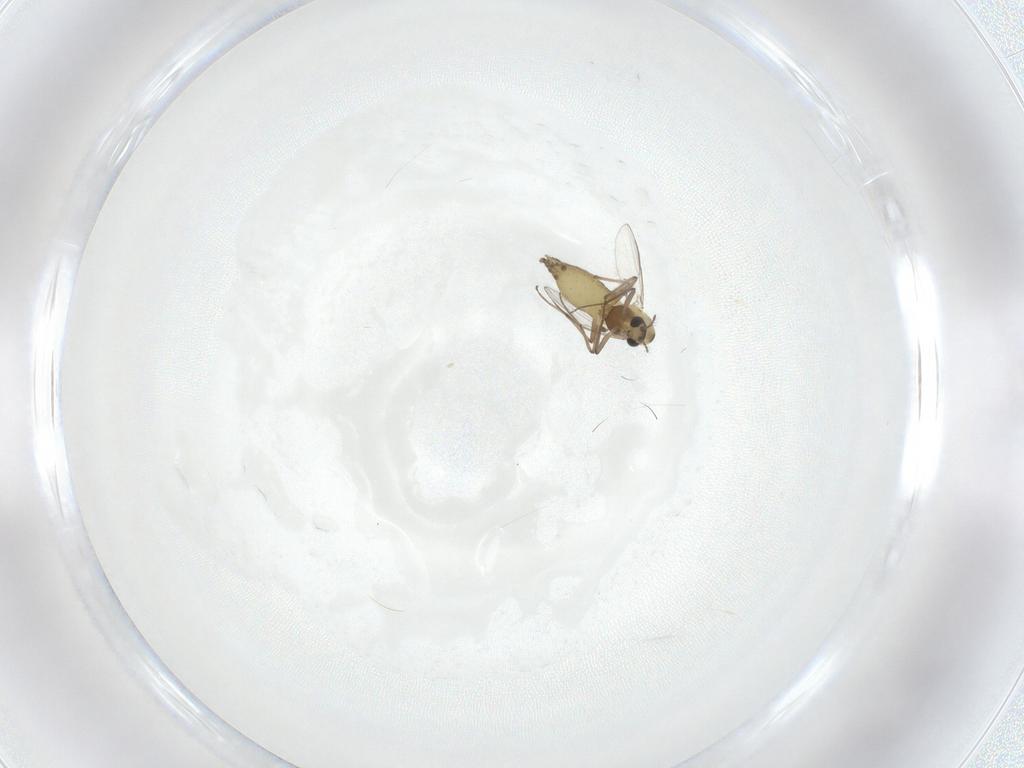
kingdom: Animalia
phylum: Arthropoda
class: Insecta
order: Diptera
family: Chironomidae
